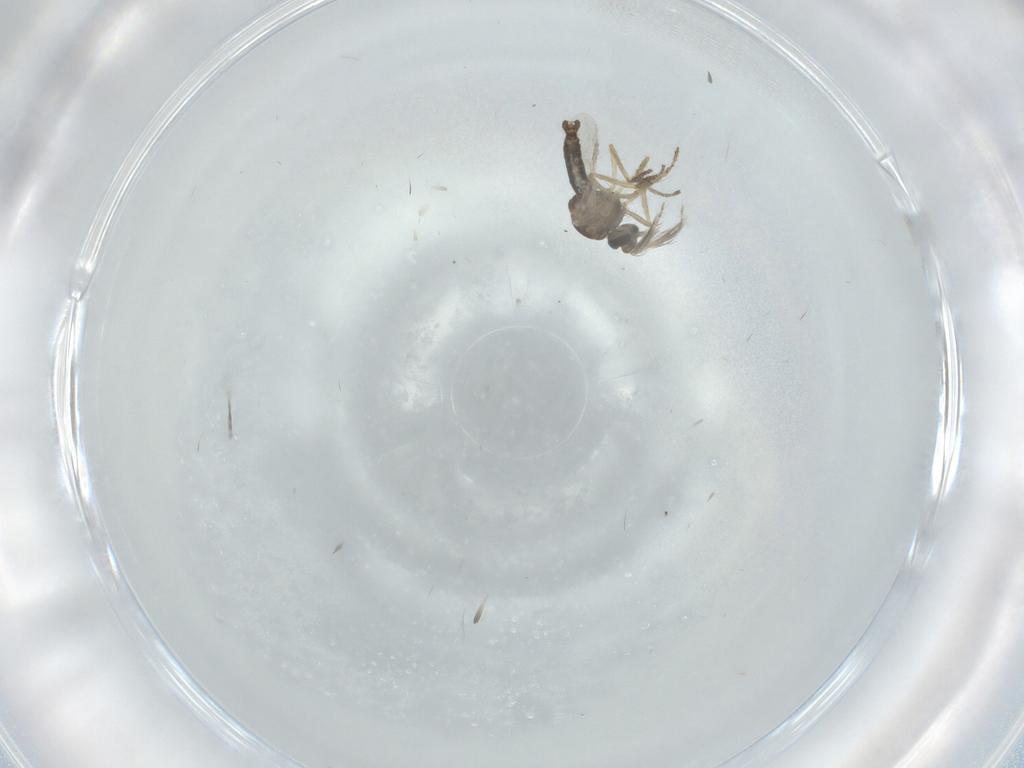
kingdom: Animalia
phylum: Arthropoda
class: Insecta
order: Diptera
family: Ceratopogonidae
